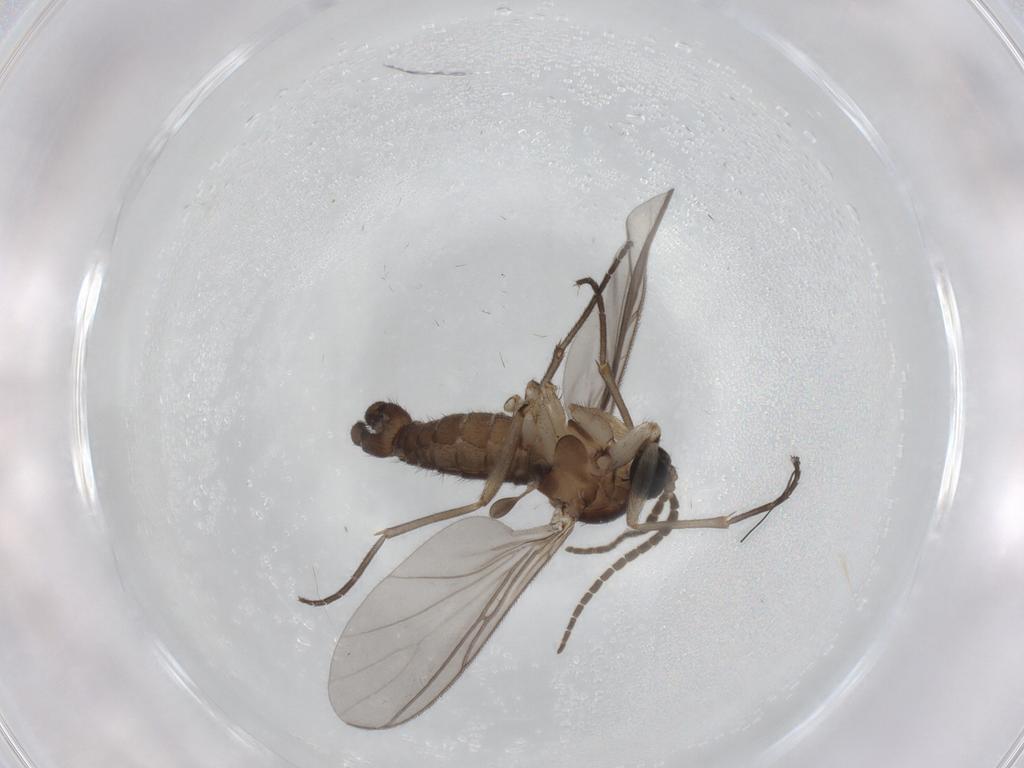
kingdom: Animalia
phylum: Arthropoda
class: Insecta
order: Diptera
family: Sciaridae
